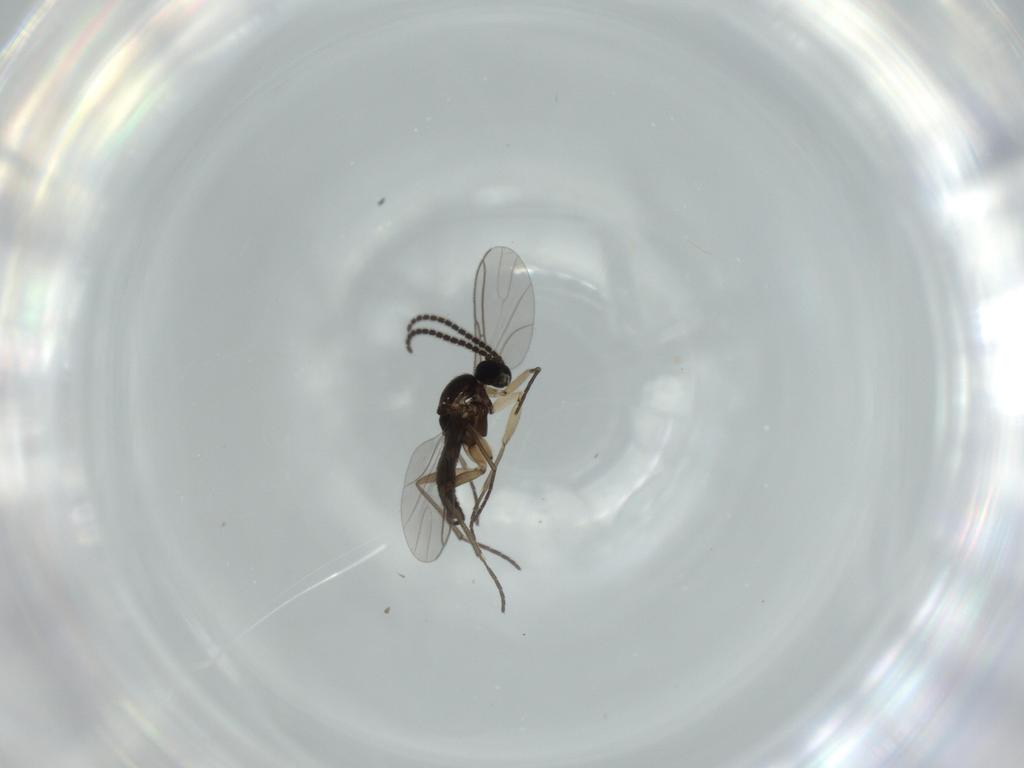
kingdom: Animalia
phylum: Arthropoda
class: Insecta
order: Diptera
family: Sciaridae
